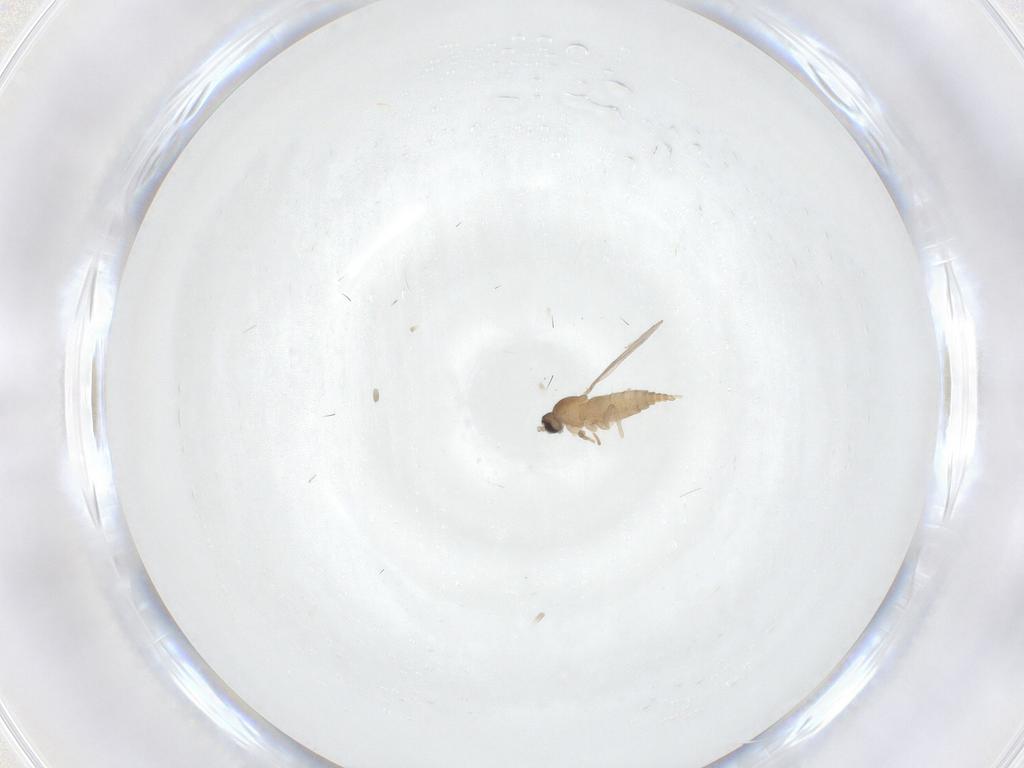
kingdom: Animalia
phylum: Arthropoda
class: Insecta
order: Diptera
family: Cecidomyiidae
